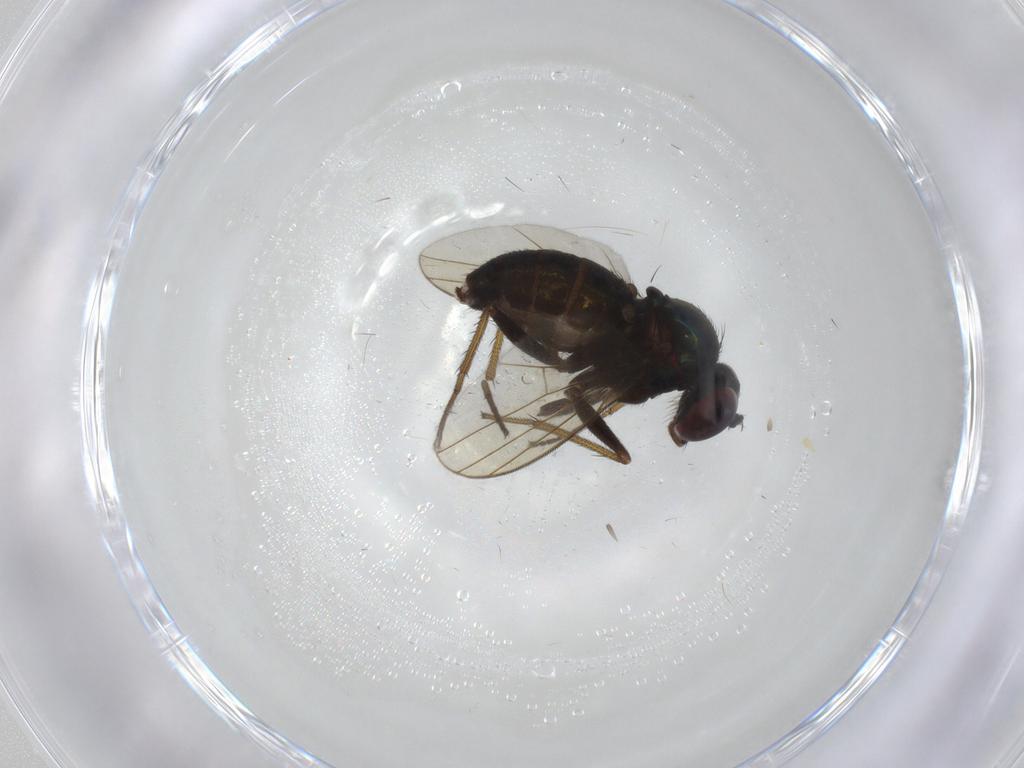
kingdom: Animalia
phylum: Arthropoda
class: Insecta
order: Diptera
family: Dolichopodidae
